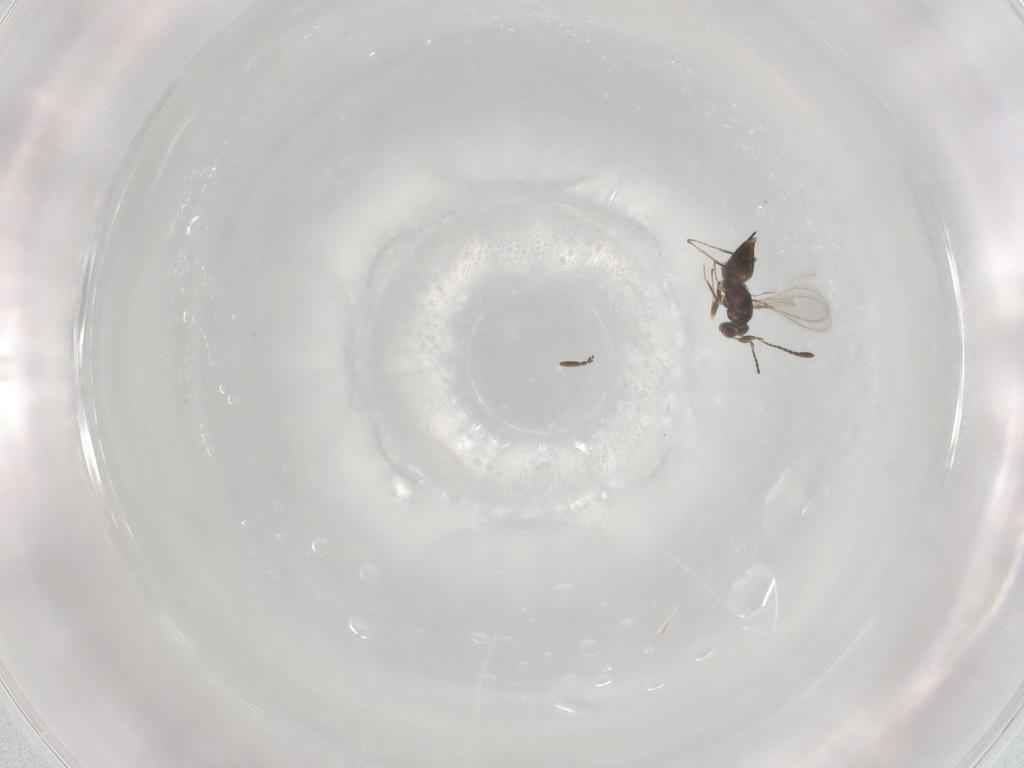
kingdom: Animalia
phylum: Arthropoda
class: Insecta
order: Hymenoptera
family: Mymaridae
